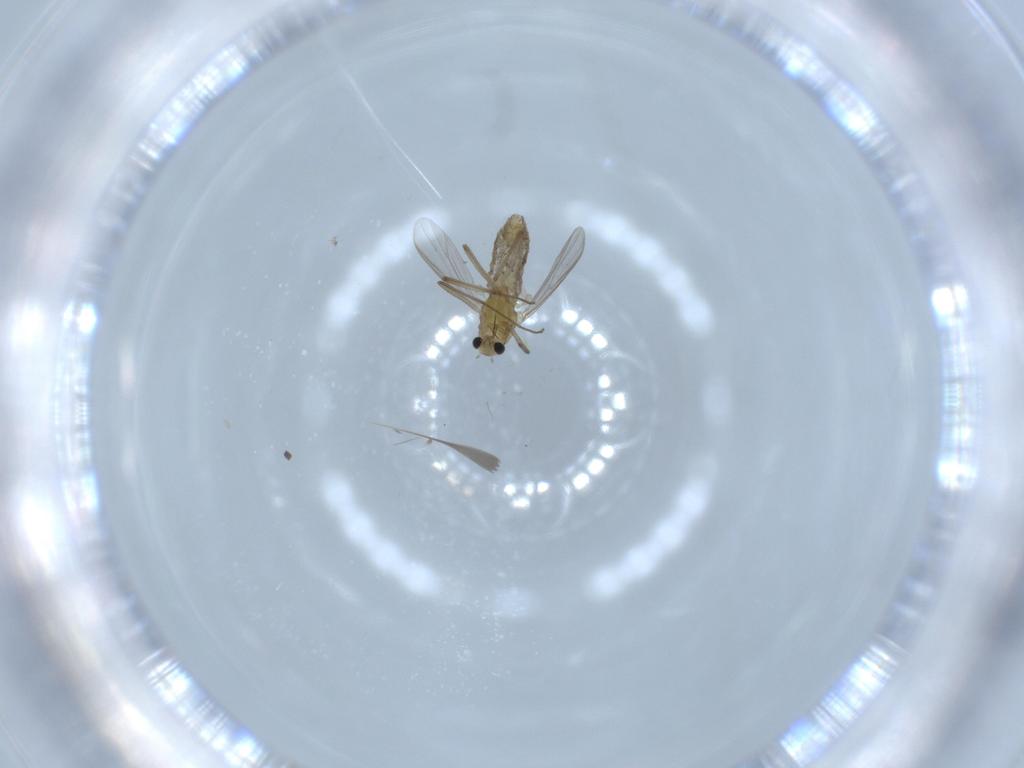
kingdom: Animalia
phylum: Arthropoda
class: Insecta
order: Diptera
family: Chironomidae
